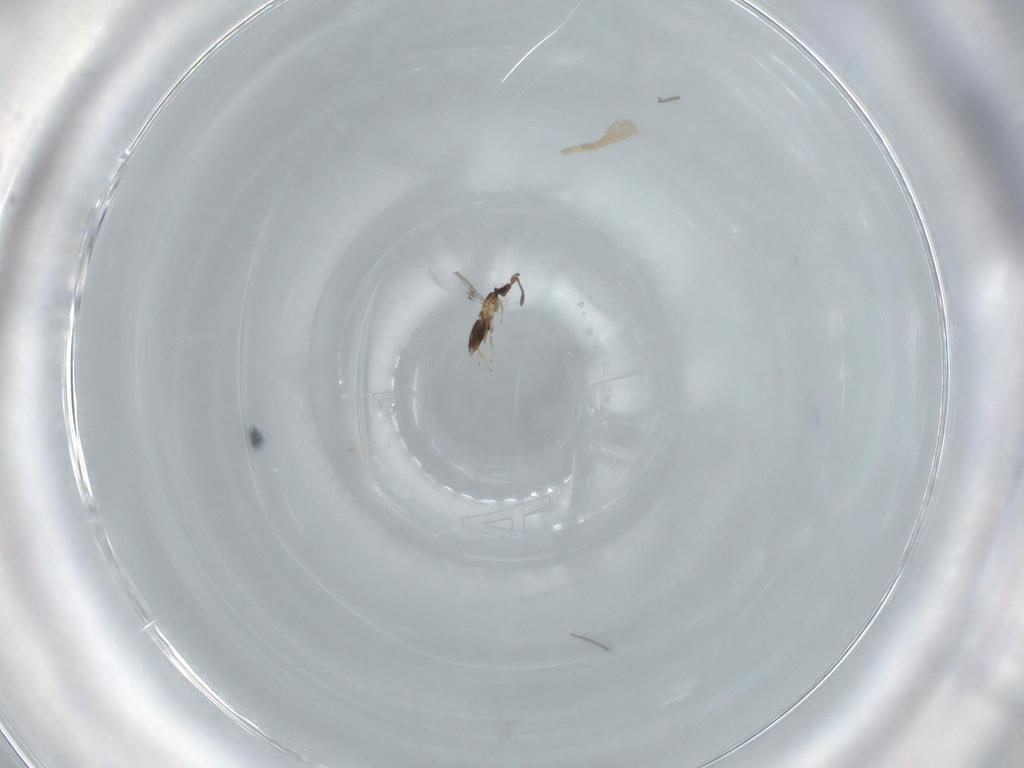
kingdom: Animalia
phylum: Arthropoda
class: Insecta
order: Hymenoptera
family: Mymaridae
